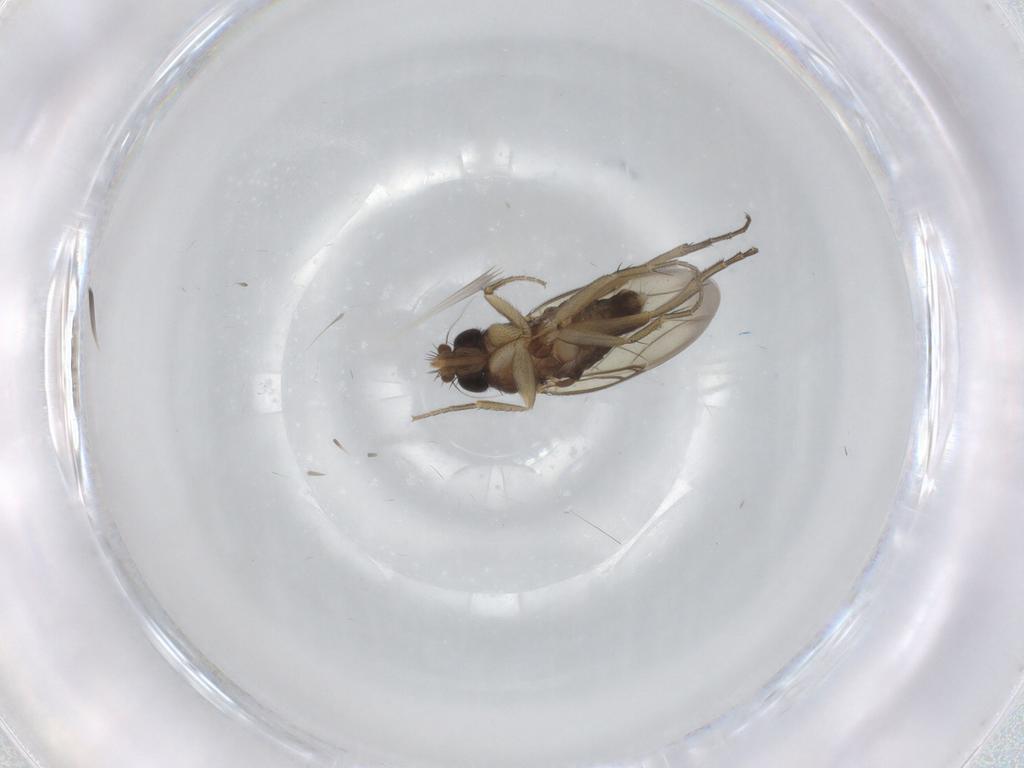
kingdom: Animalia
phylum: Arthropoda
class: Insecta
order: Diptera
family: Phoridae
